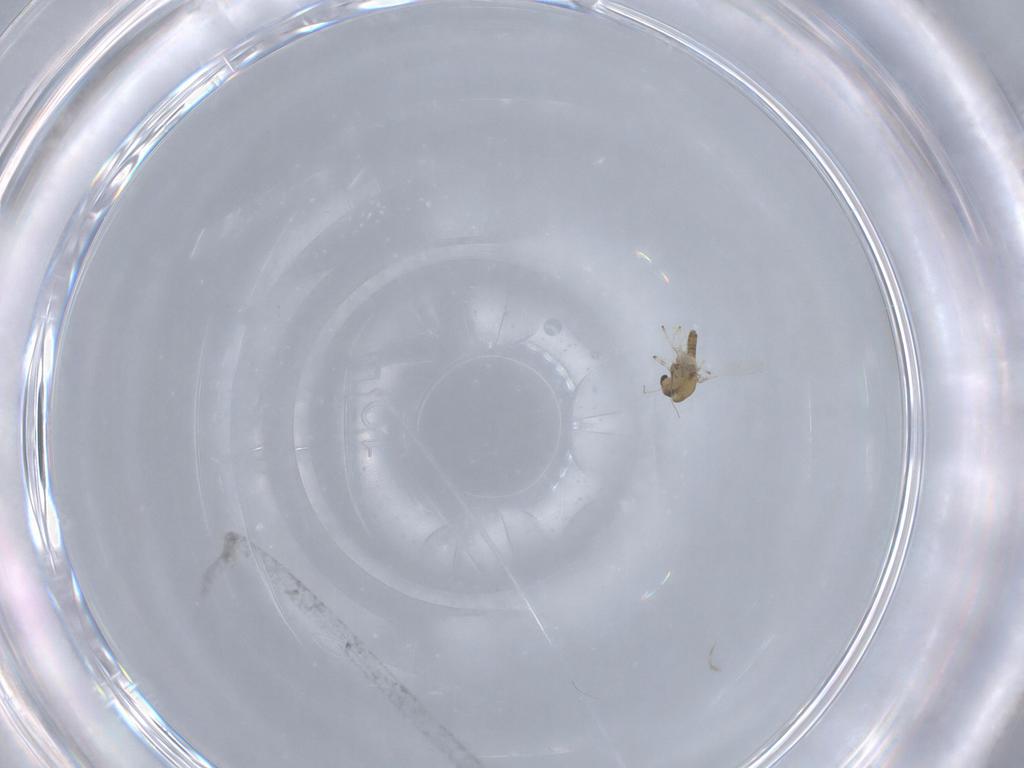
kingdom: Animalia
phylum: Arthropoda
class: Insecta
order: Diptera
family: Chironomidae
